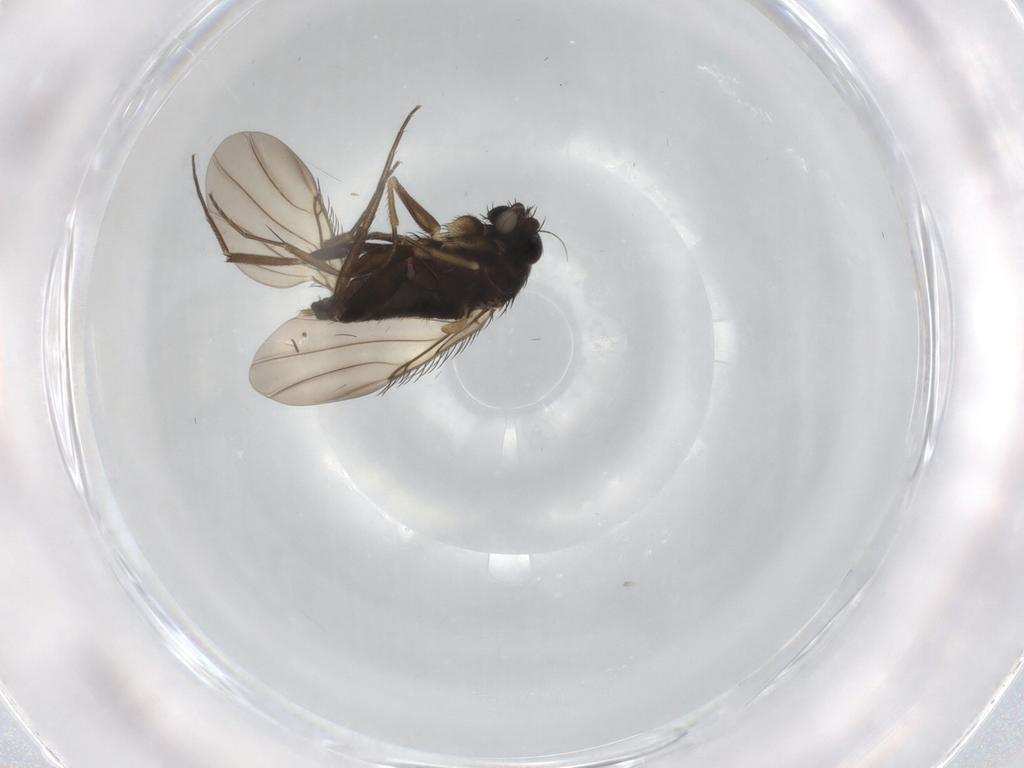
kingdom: Animalia
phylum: Arthropoda
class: Insecta
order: Diptera
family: Phoridae
